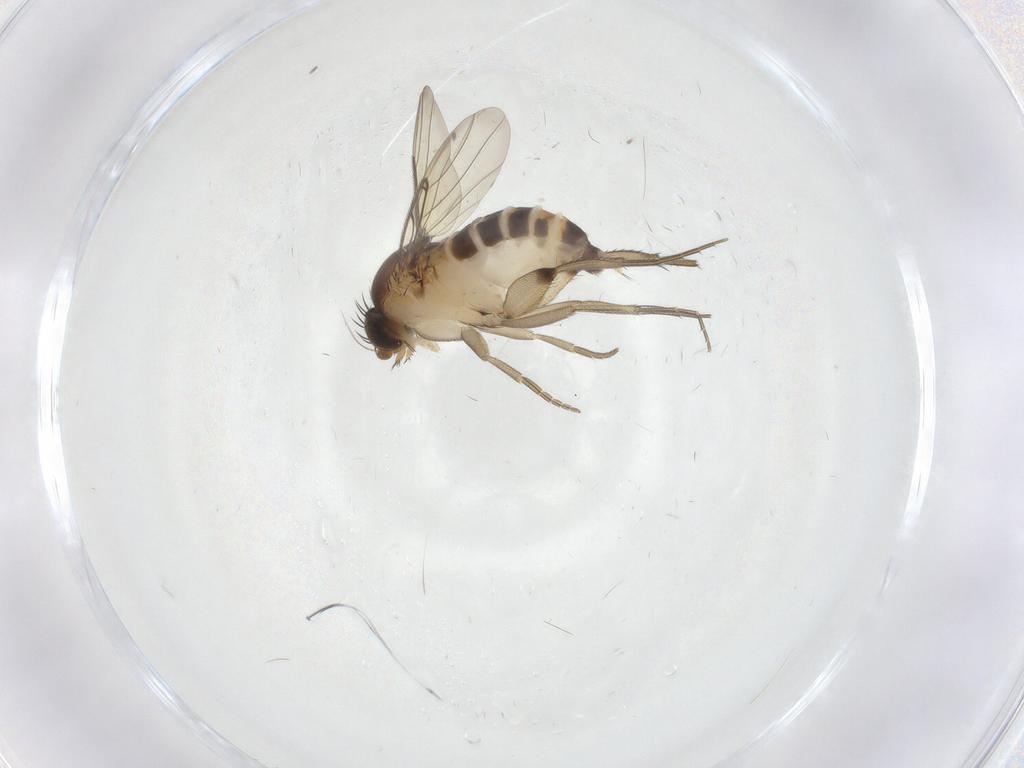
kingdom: Animalia
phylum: Arthropoda
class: Insecta
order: Diptera
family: Phoridae
